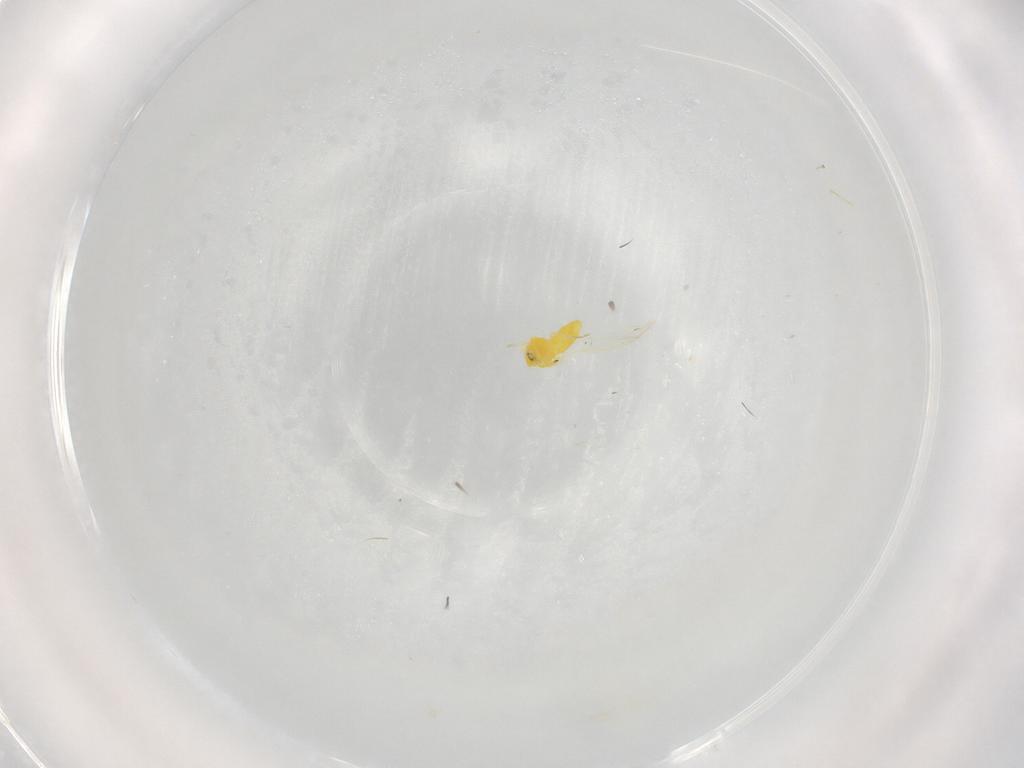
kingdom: Animalia
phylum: Arthropoda
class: Insecta
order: Hemiptera
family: Aleyrodidae
